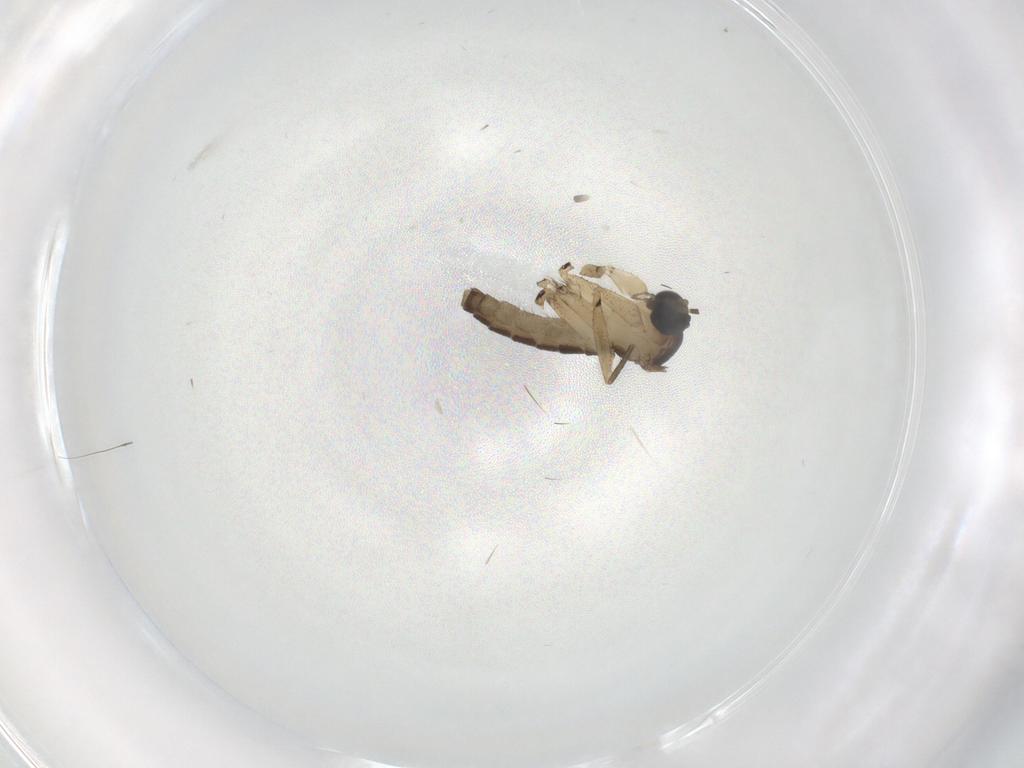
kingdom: Animalia
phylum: Arthropoda
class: Insecta
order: Diptera
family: Sciaridae
